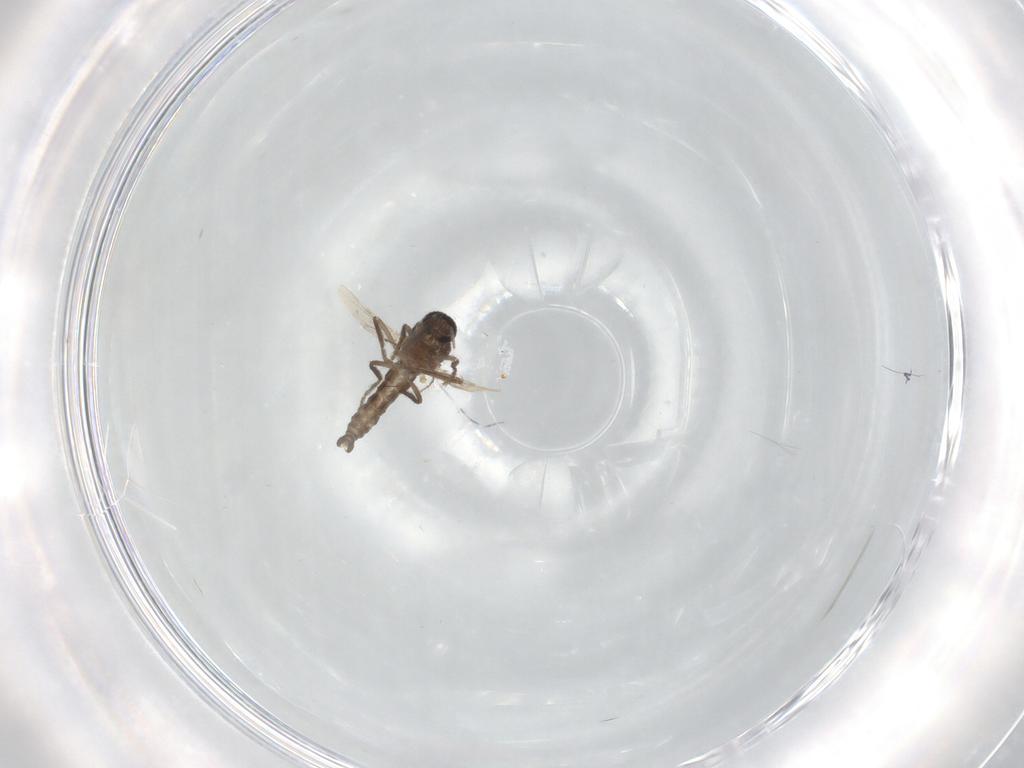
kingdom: Animalia
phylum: Arthropoda
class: Insecta
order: Diptera
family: Ceratopogonidae
